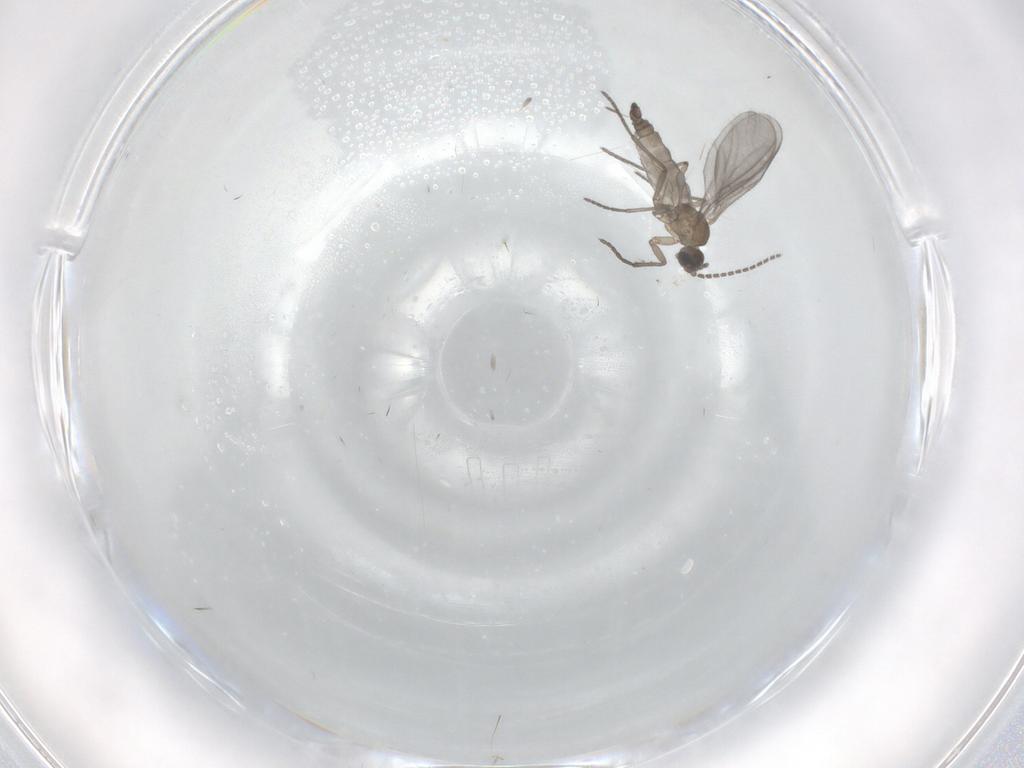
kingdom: Animalia
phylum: Arthropoda
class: Insecta
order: Diptera
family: Sciaridae
